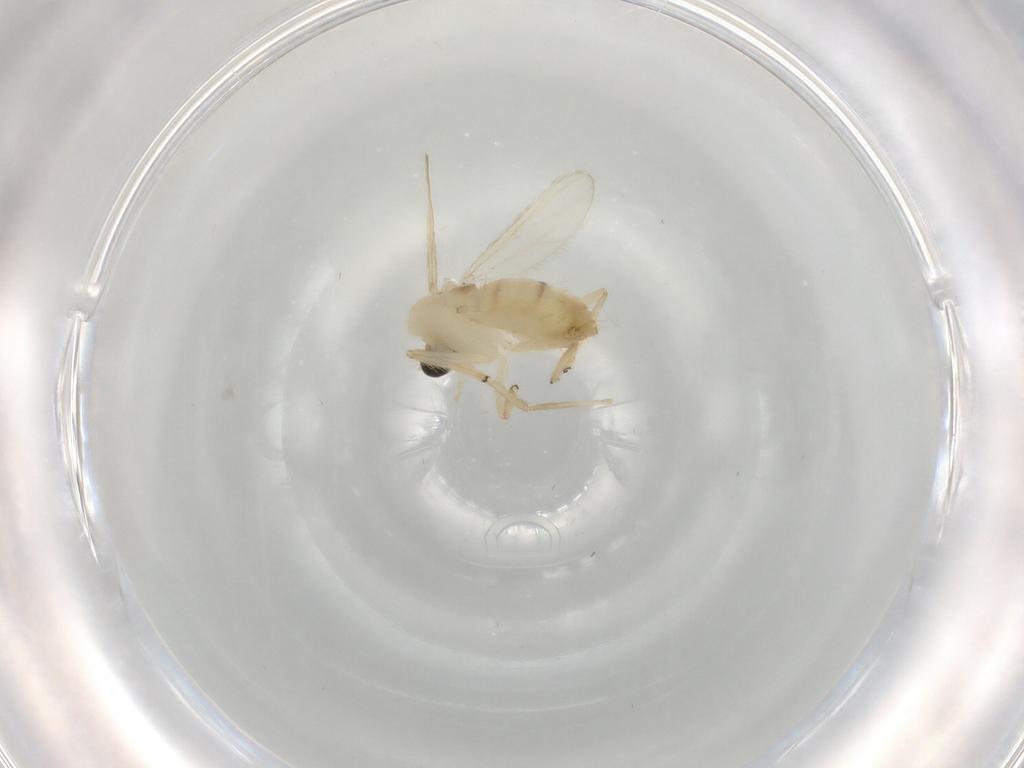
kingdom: Animalia
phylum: Arthropoda
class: Insecta
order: Diptera
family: Chironomidae
